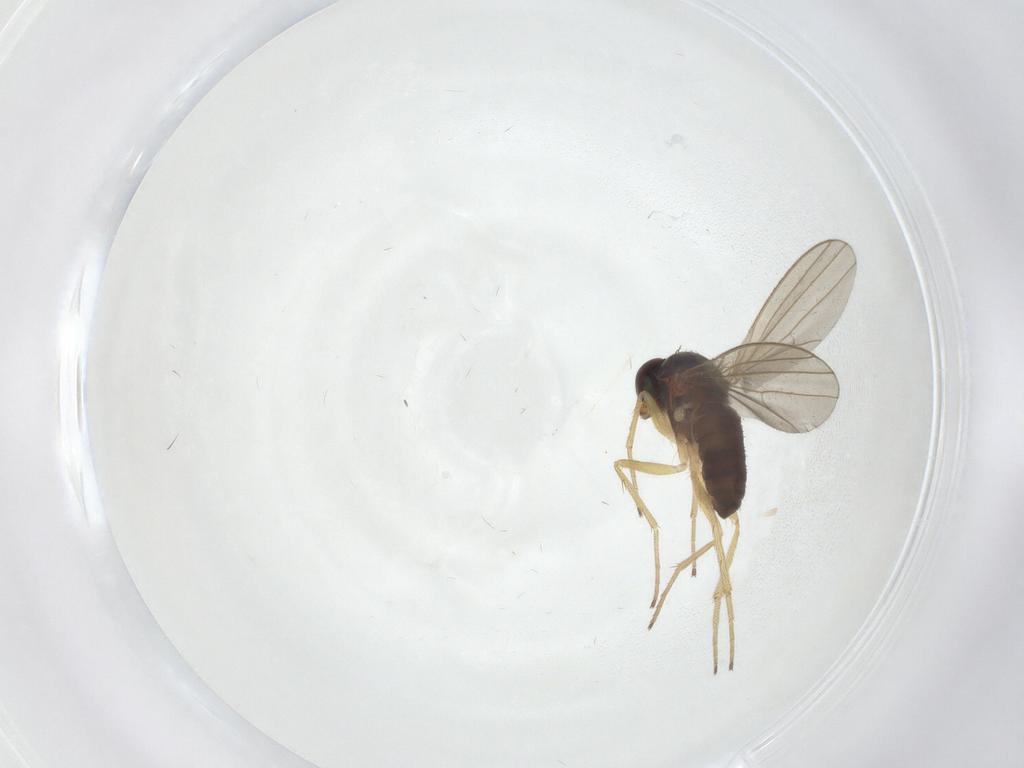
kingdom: Animalia
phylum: Arthropoda
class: Insecta
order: Diptera
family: Dolichopodidae
